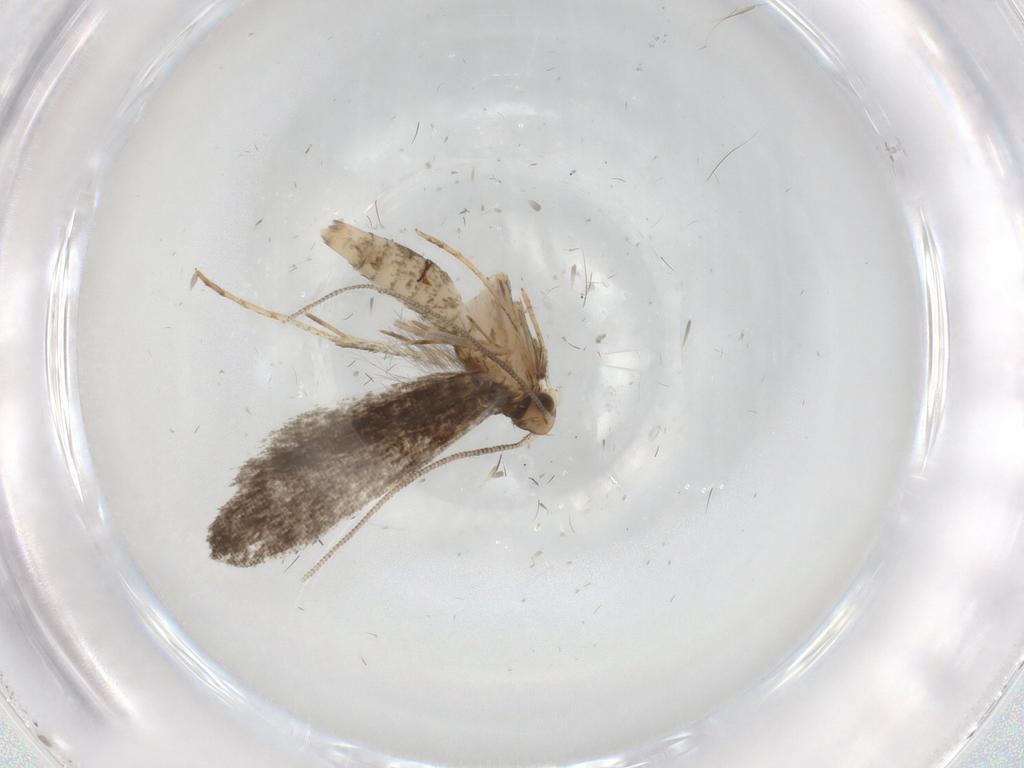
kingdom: Animalia
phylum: Arthropoda
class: Insecta
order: Lepidoptera
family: Tineidae
